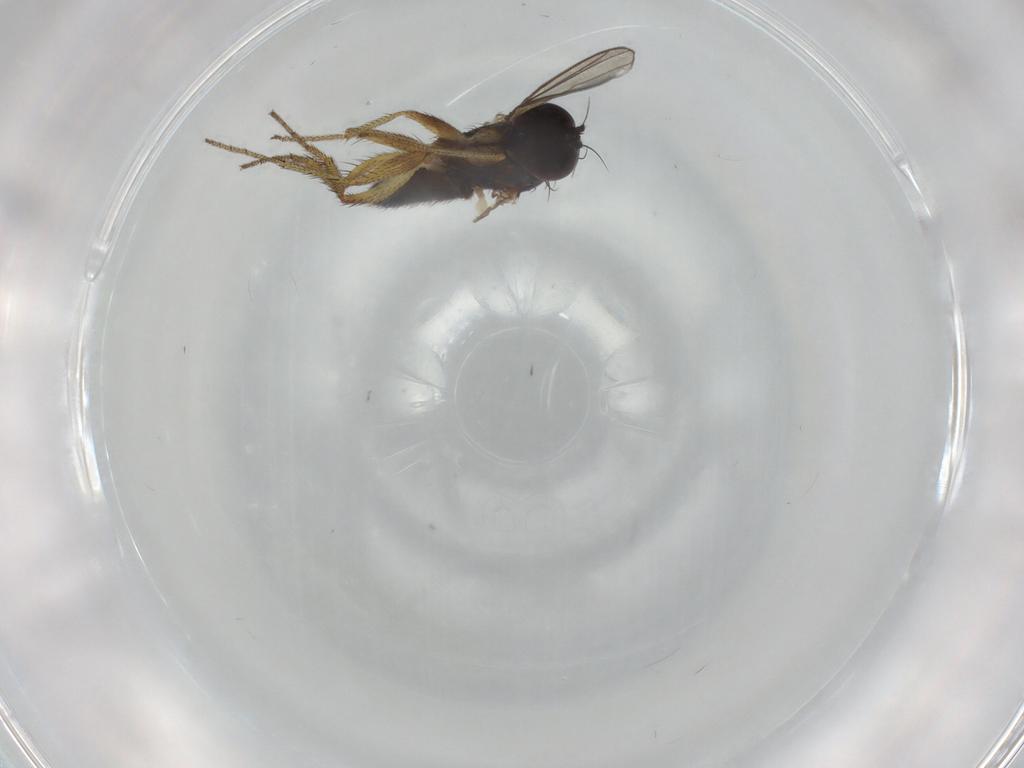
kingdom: Animalia
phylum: Arthropoda
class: Insecta
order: Diptera
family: Dolichopodidae
